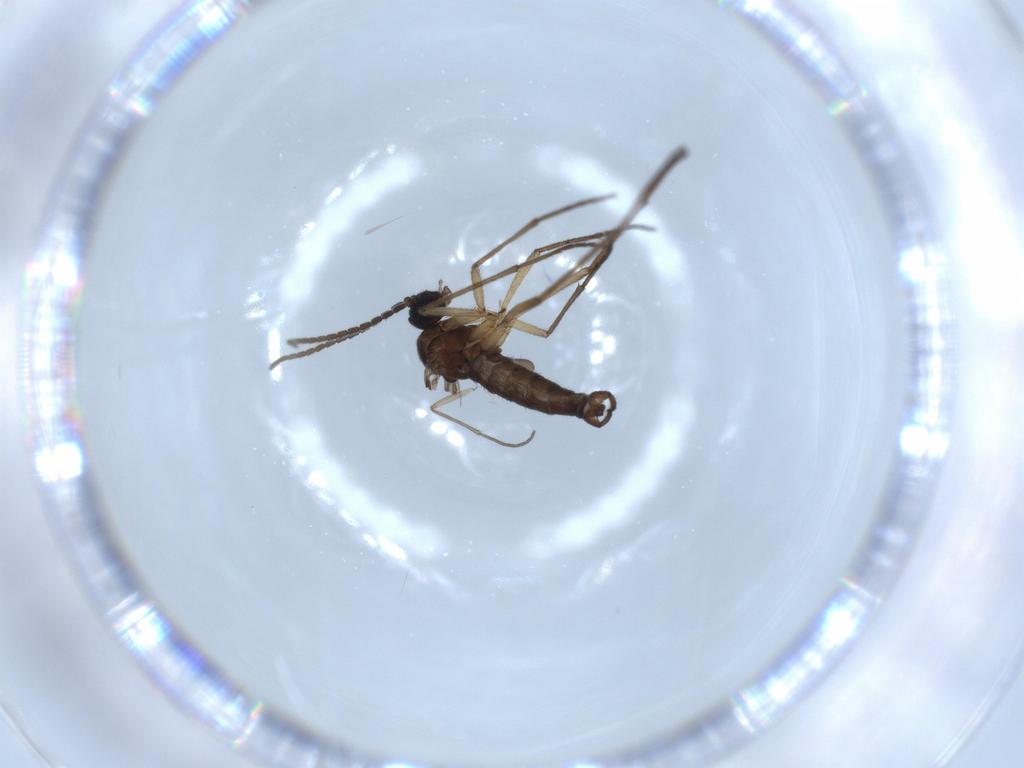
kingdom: Animalia
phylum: Arthropoda
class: Insecta
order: Diptera
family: Sciaridae
